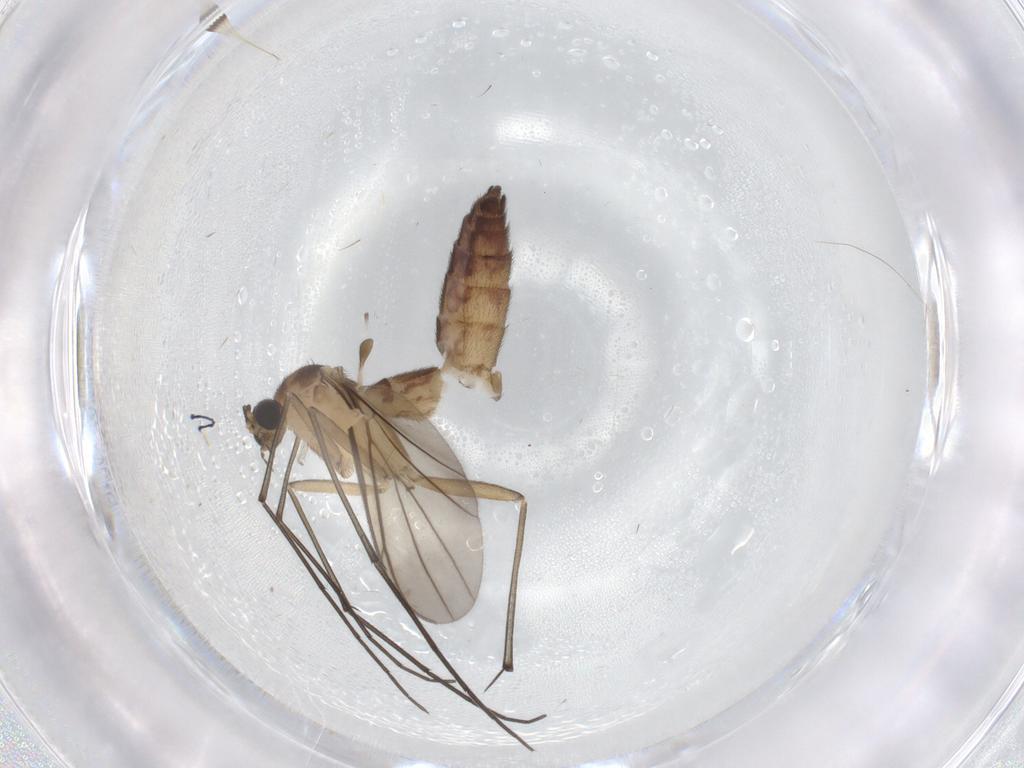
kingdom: Animalia
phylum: Arthropoda
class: Insecta
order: Diptera
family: Keroplatidae
